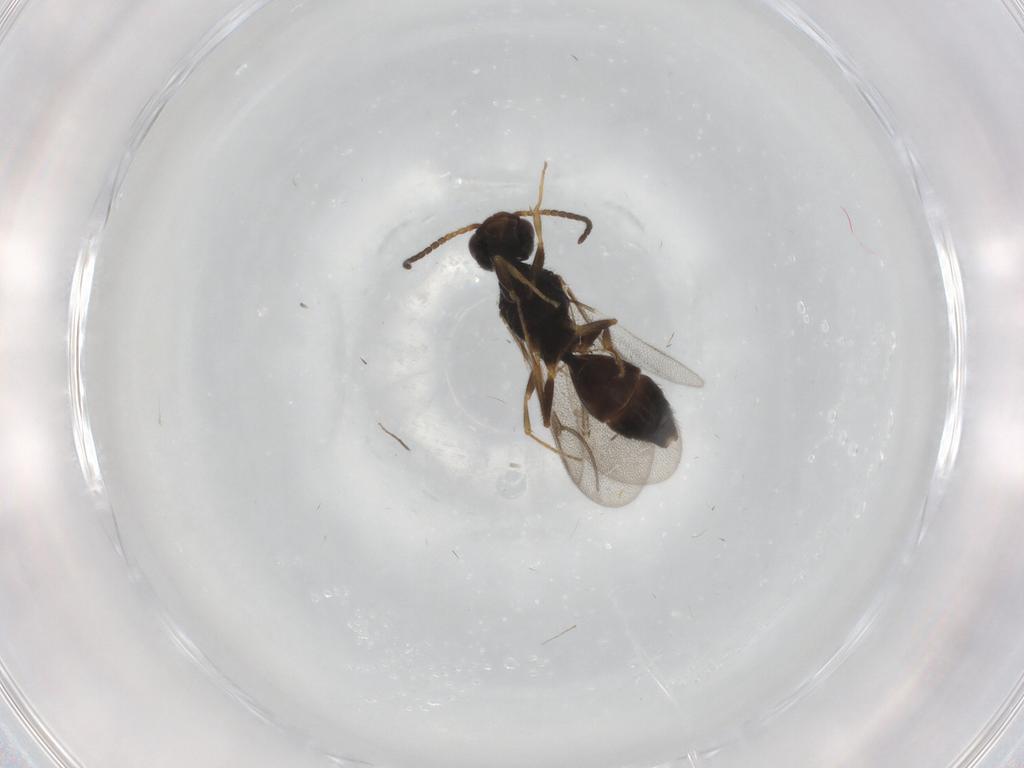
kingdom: Animalia
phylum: Arthropoda
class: Insecta
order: Hymenoptera
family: Bethylidae
